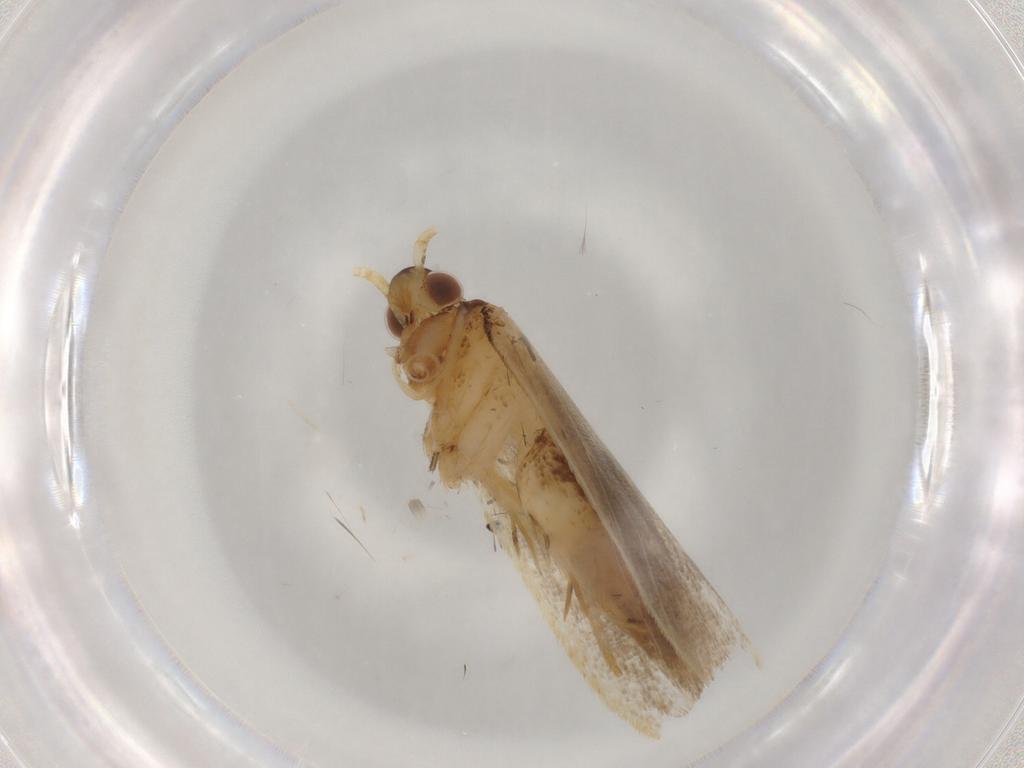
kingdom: Animalia
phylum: Arthropoda
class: Insecta
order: Lepidoptera
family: Lecithoceridae
